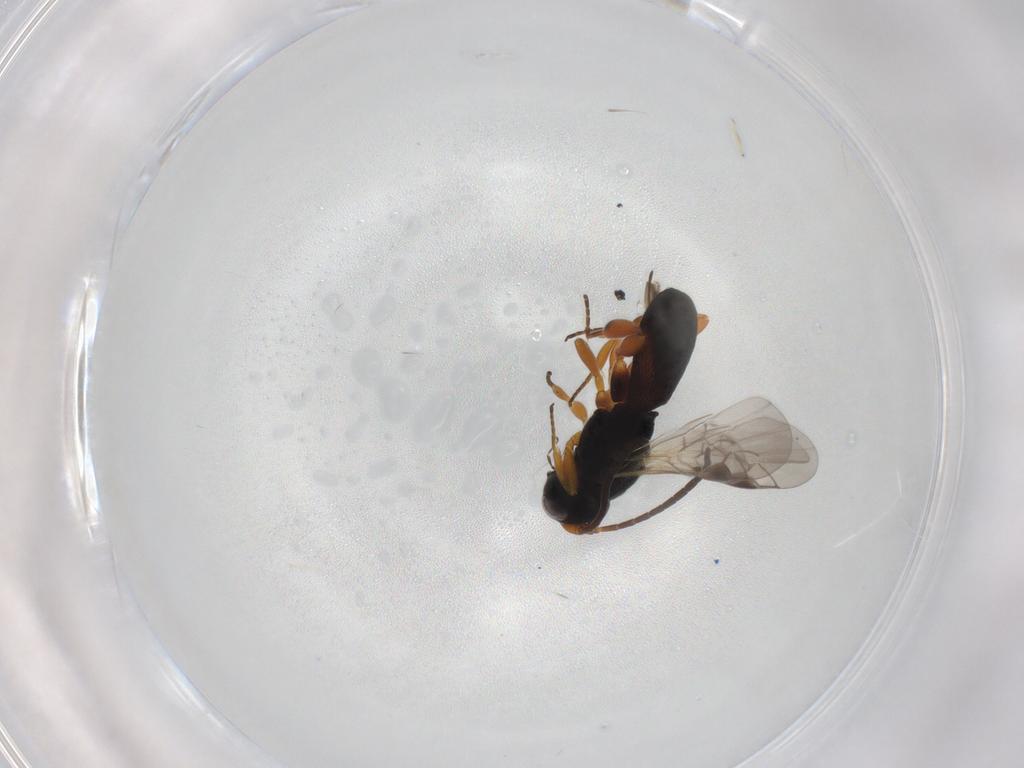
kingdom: Animalia
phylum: Arthropoda
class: Insecta
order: Hymenoptera
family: Braconidae
